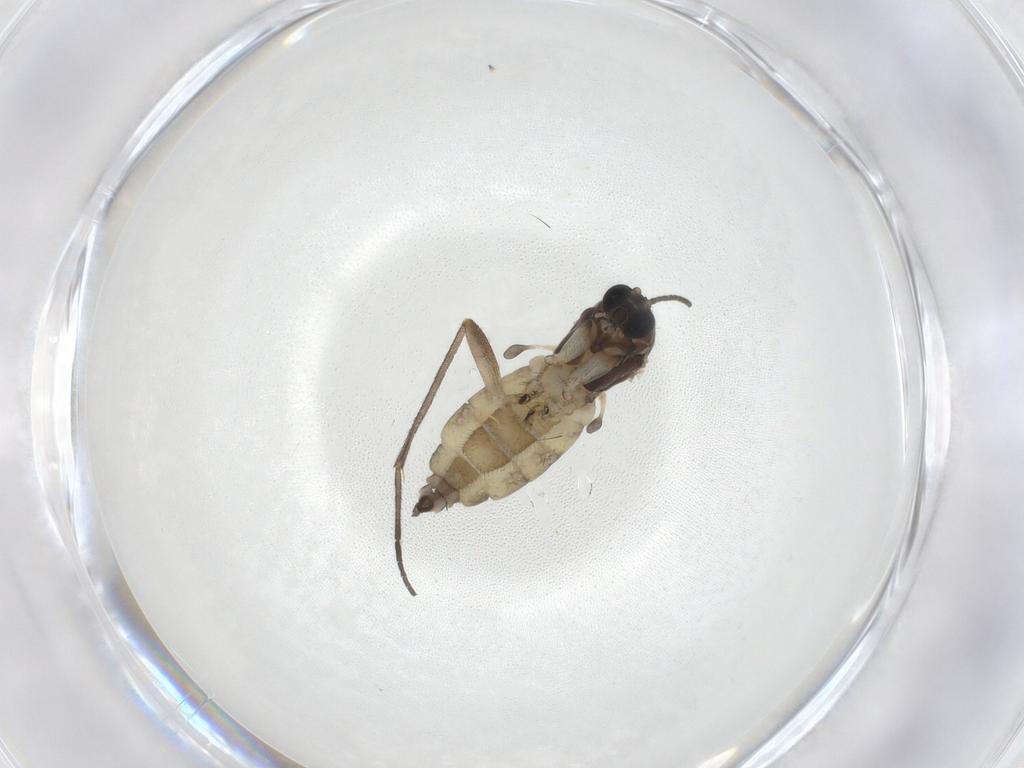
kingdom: Animalia
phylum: Arthropoda
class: Insecta
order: Diptera
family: Sciaridae
